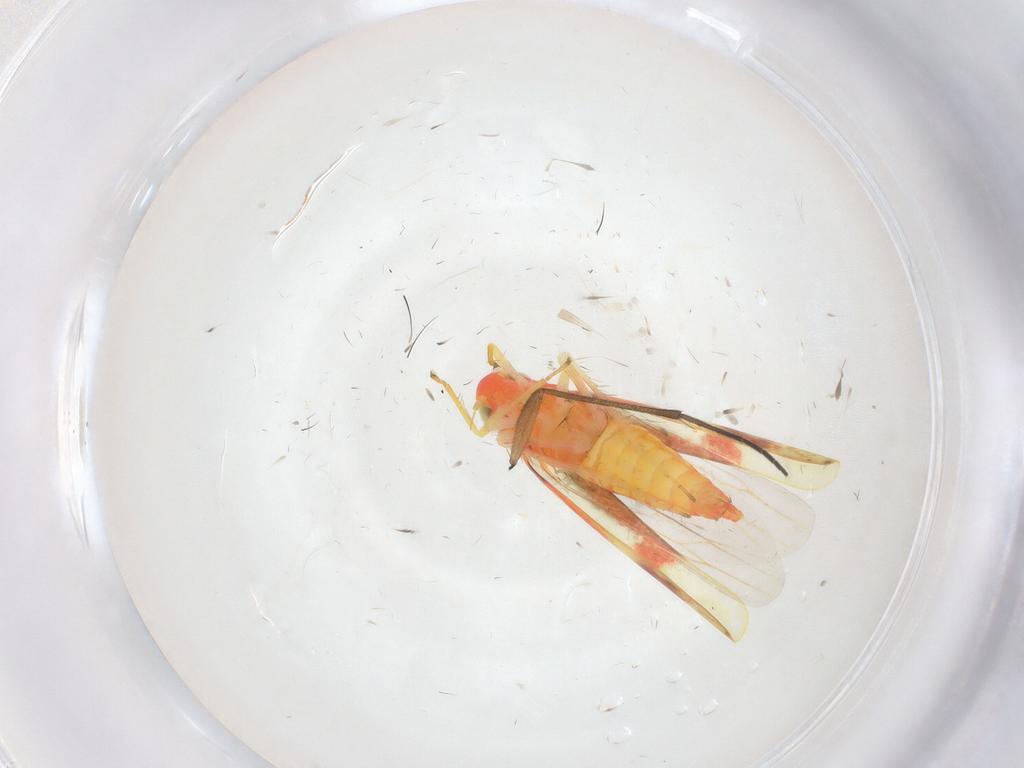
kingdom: Animalia
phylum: Arthropoda
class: Insecta
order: Hemiptera
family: Cicadellidae
